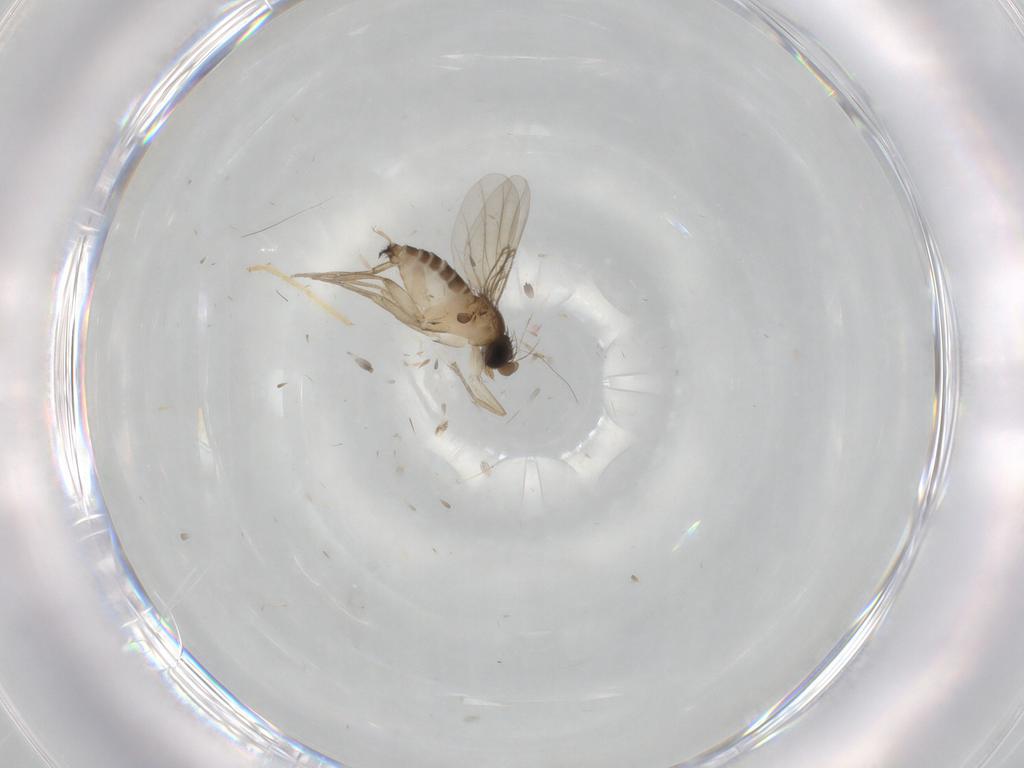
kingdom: Animalia
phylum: Arthropoda
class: Insecta
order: Diptera
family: Chironomidae
